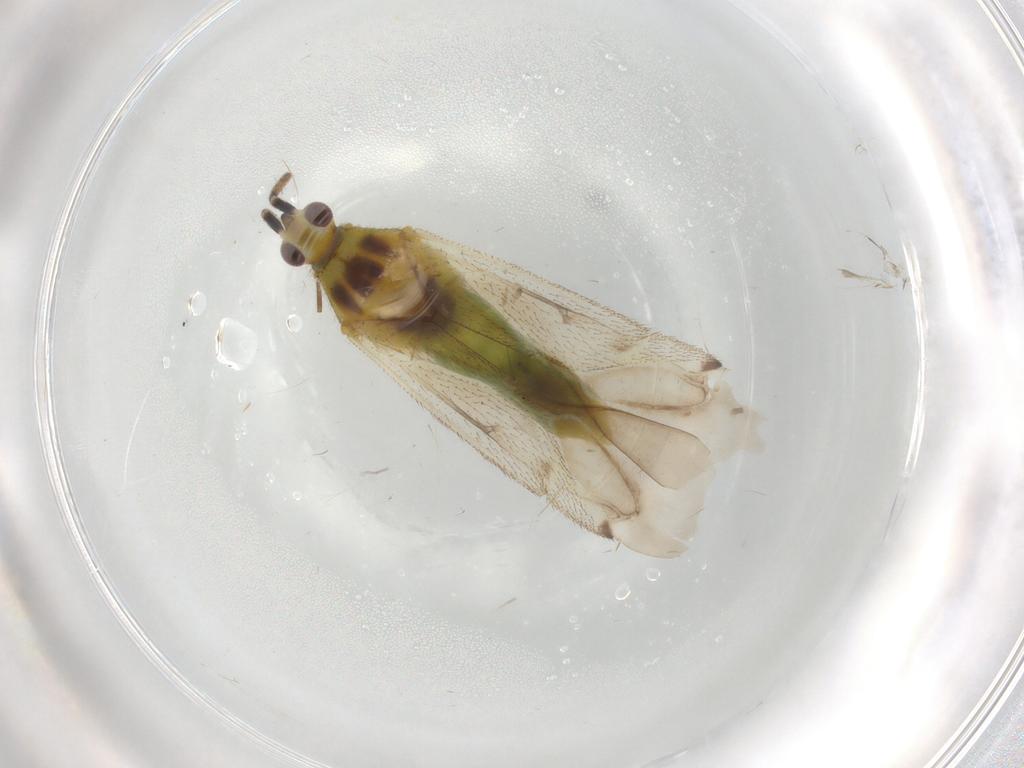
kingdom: Animalia
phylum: Arthropoda
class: Insecta
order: Hemiptera
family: Miridae
